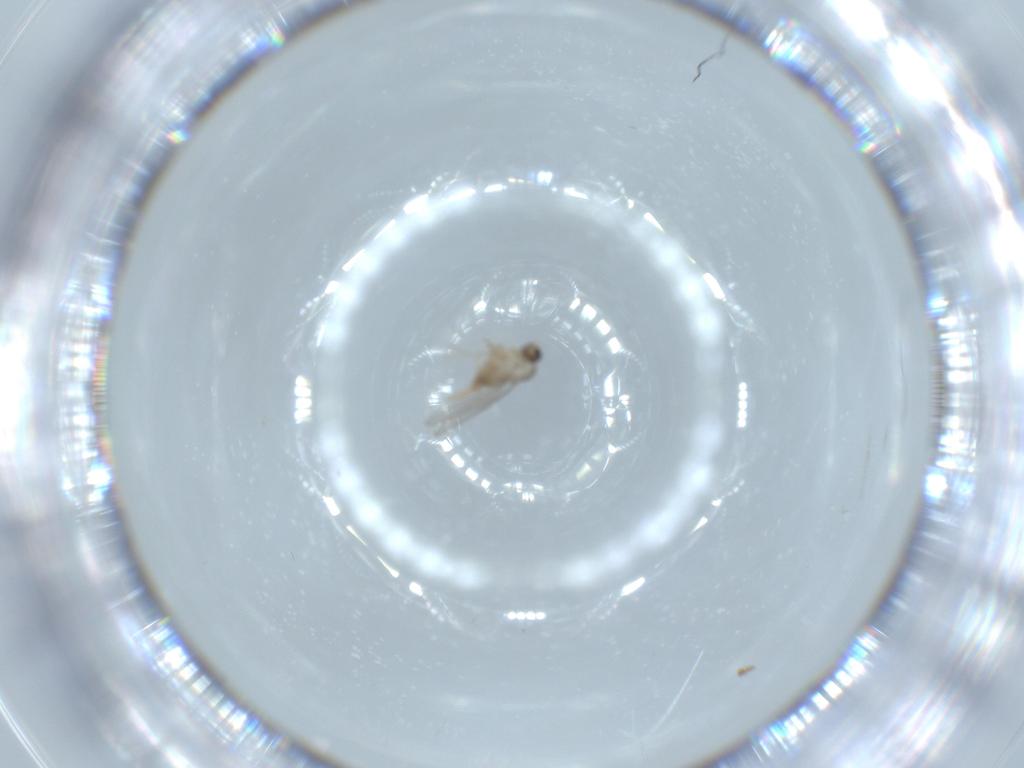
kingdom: Animalia
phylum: Arthropoda
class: Insecta
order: Diptera
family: Cecidomyiidae
